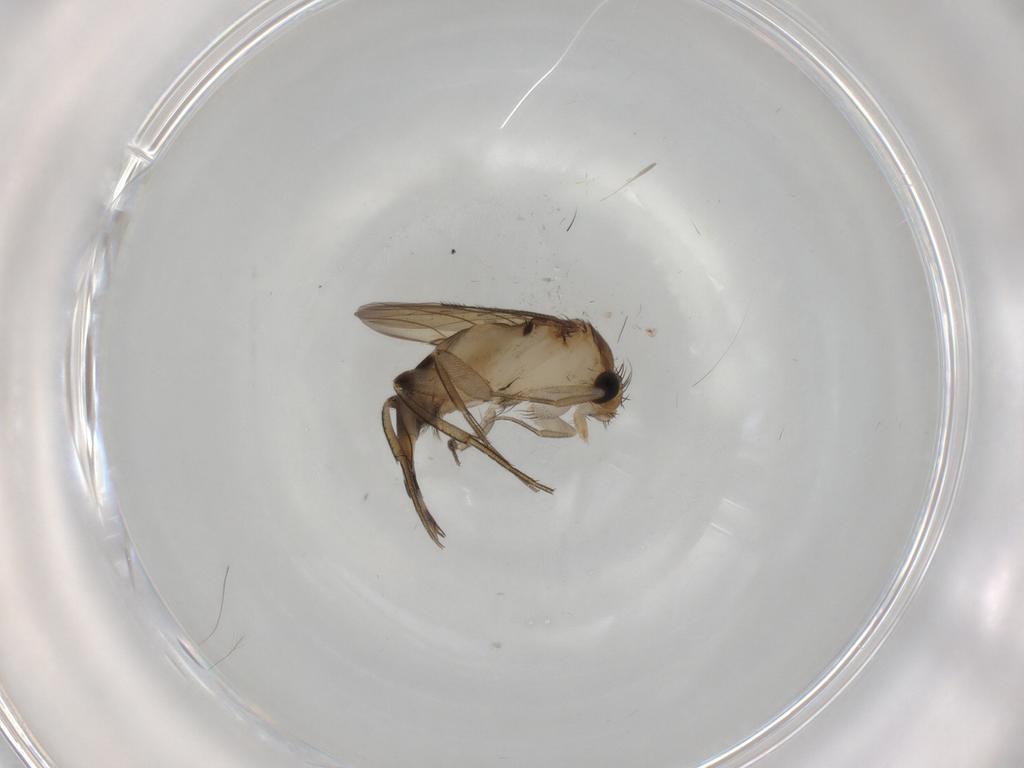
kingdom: Animalia
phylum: Arthropoda
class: Insecta
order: Diptera
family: Phoridae
